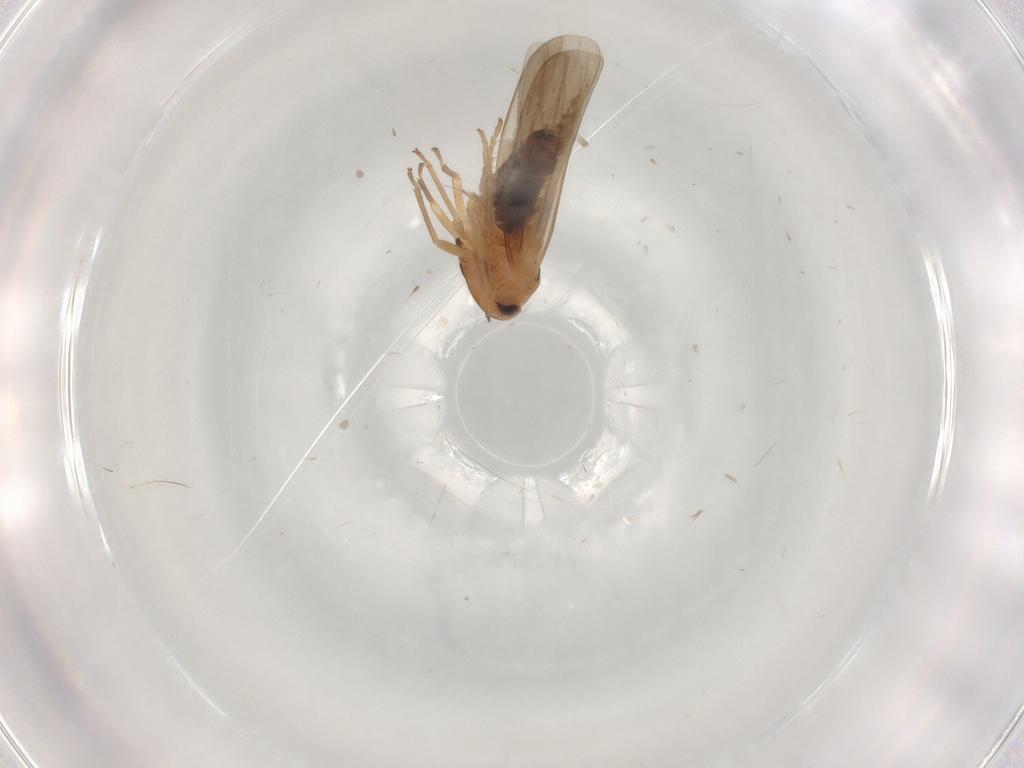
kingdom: Animalia
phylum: Arthropoda
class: Insecta
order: Hemiptera
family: Cicadellidae
